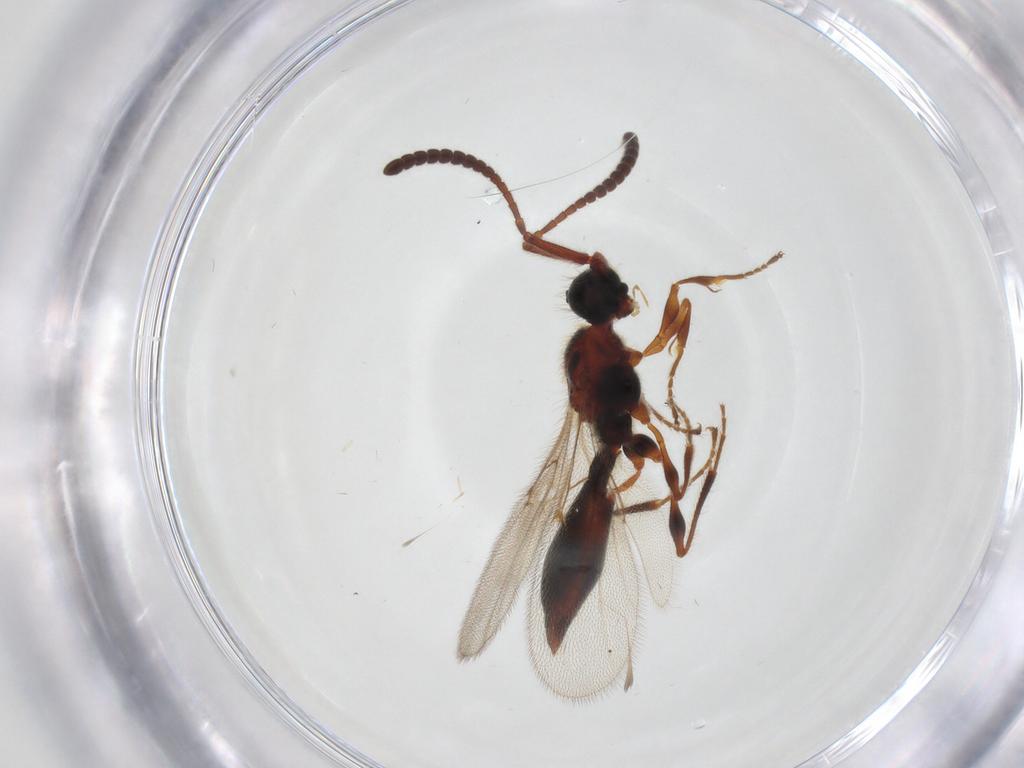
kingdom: Animalia
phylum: Arthropoda
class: Insecta
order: Hymenoptera
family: Diapriidae
